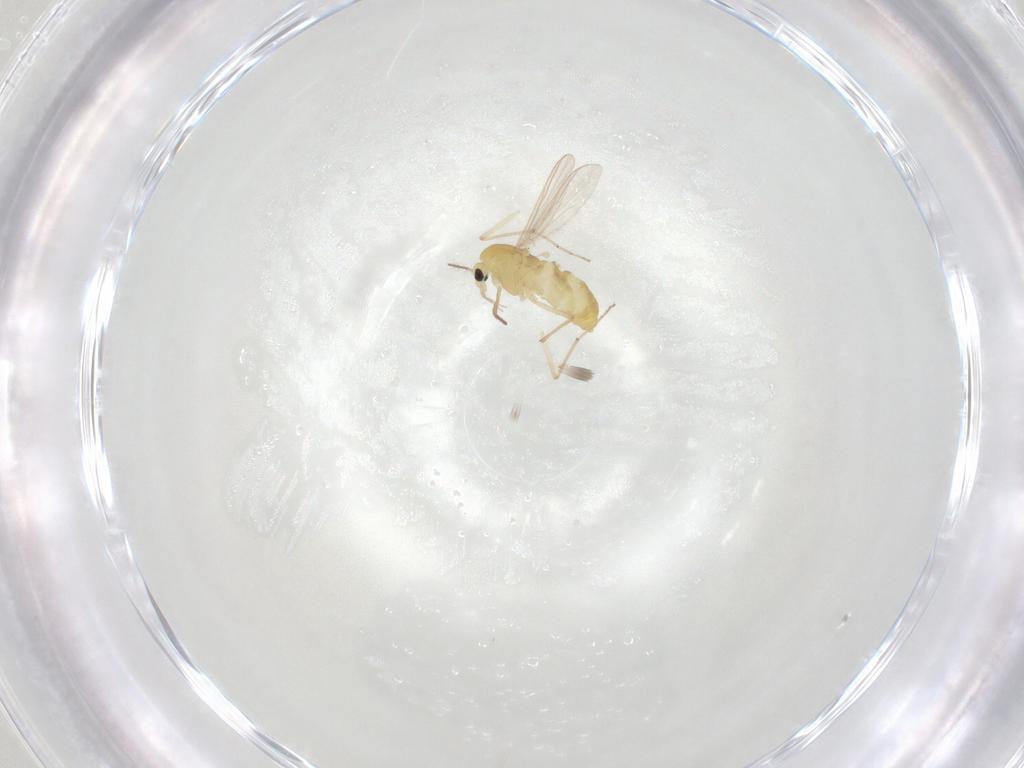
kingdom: Animalia
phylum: Arthropoda
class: Insecta
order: Diptera
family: Chironomidae
